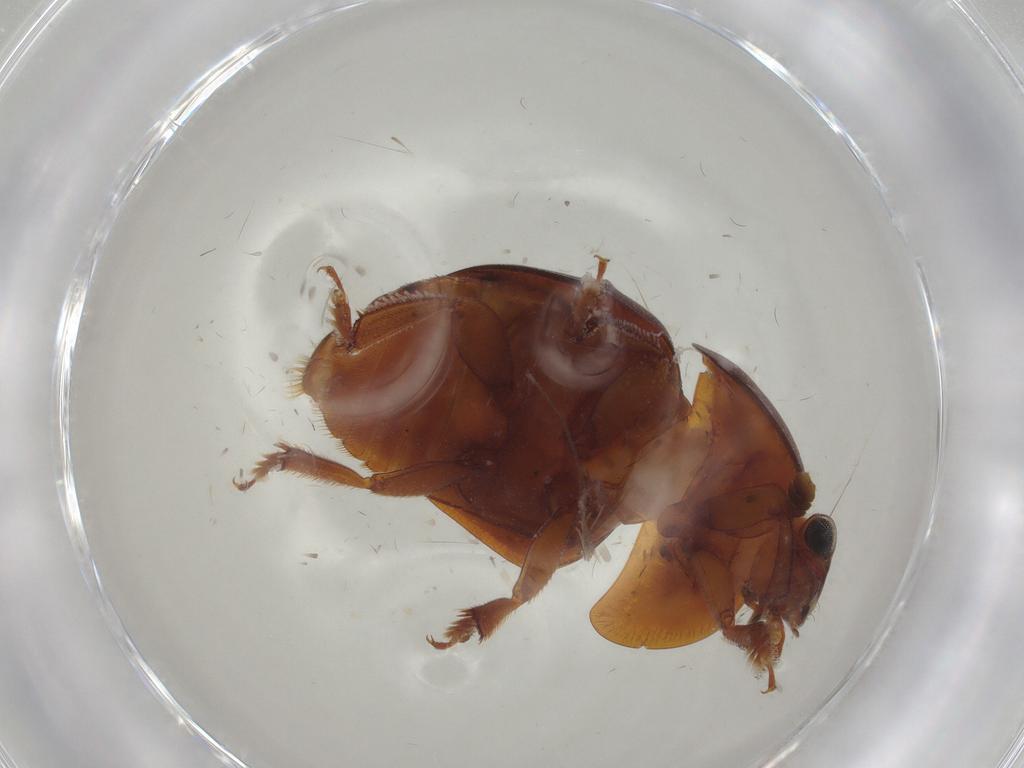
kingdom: Animalia
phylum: Arthropoda
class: Insecta
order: Coleoptera
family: Nitidulidae
